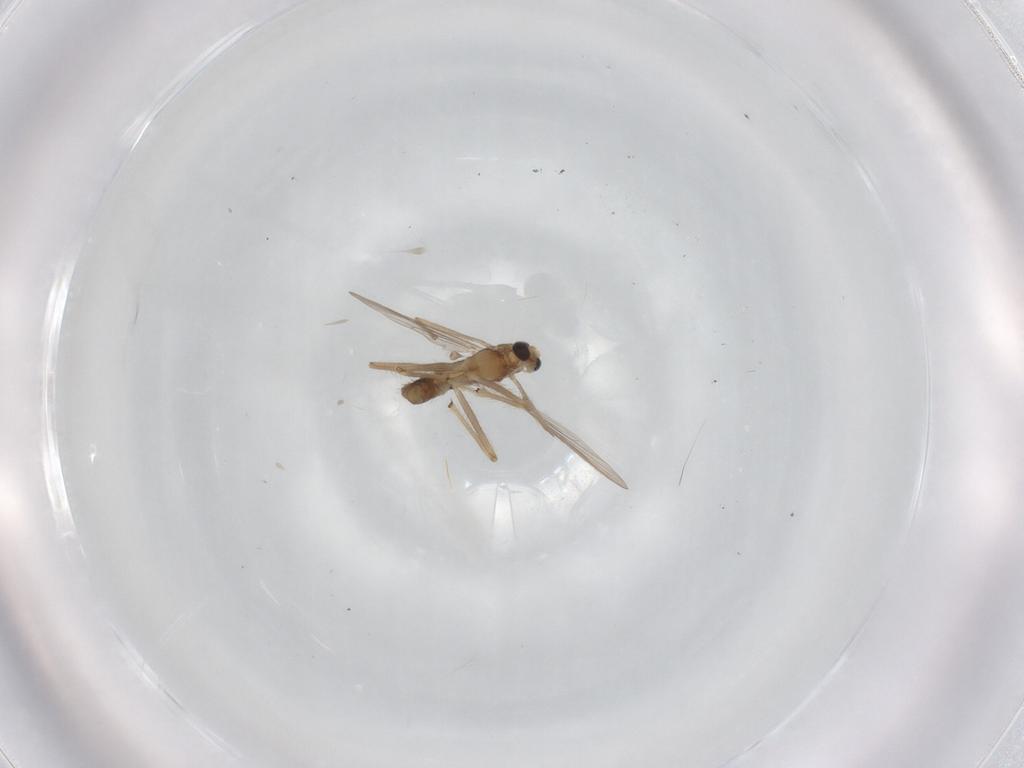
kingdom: Animalia
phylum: Arthropoda
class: Insecta
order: Diptera
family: Chironomidae
